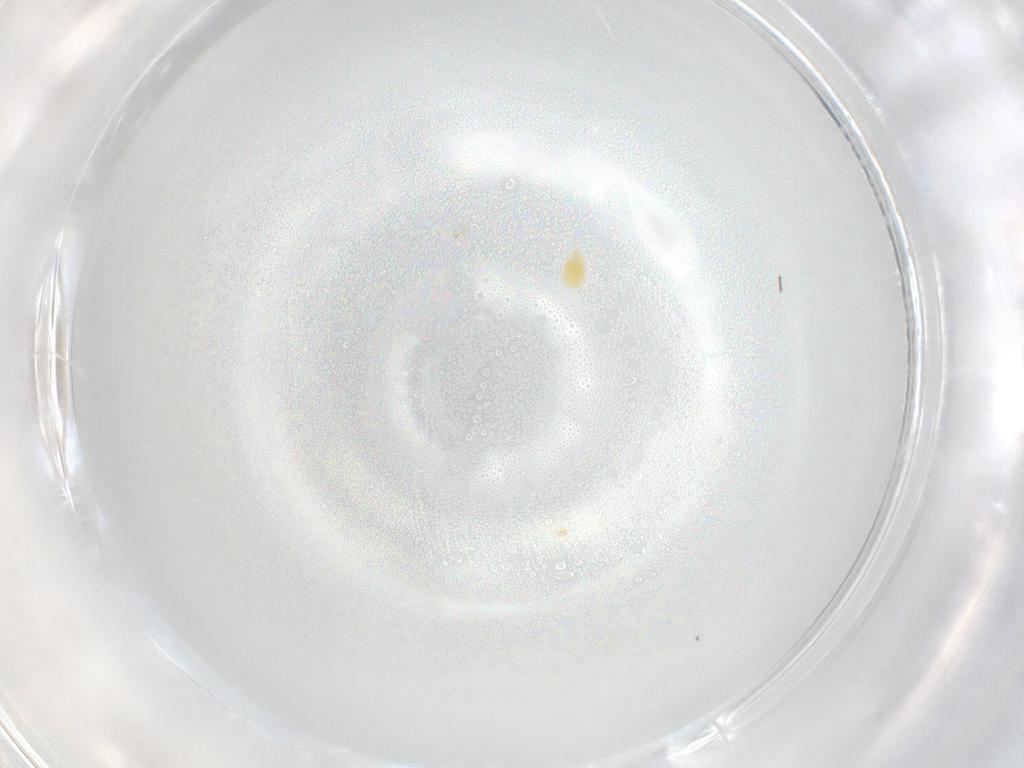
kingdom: Animalia
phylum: Arthropoda
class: Arachnida
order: Trombidiformes
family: Tetranychidae
